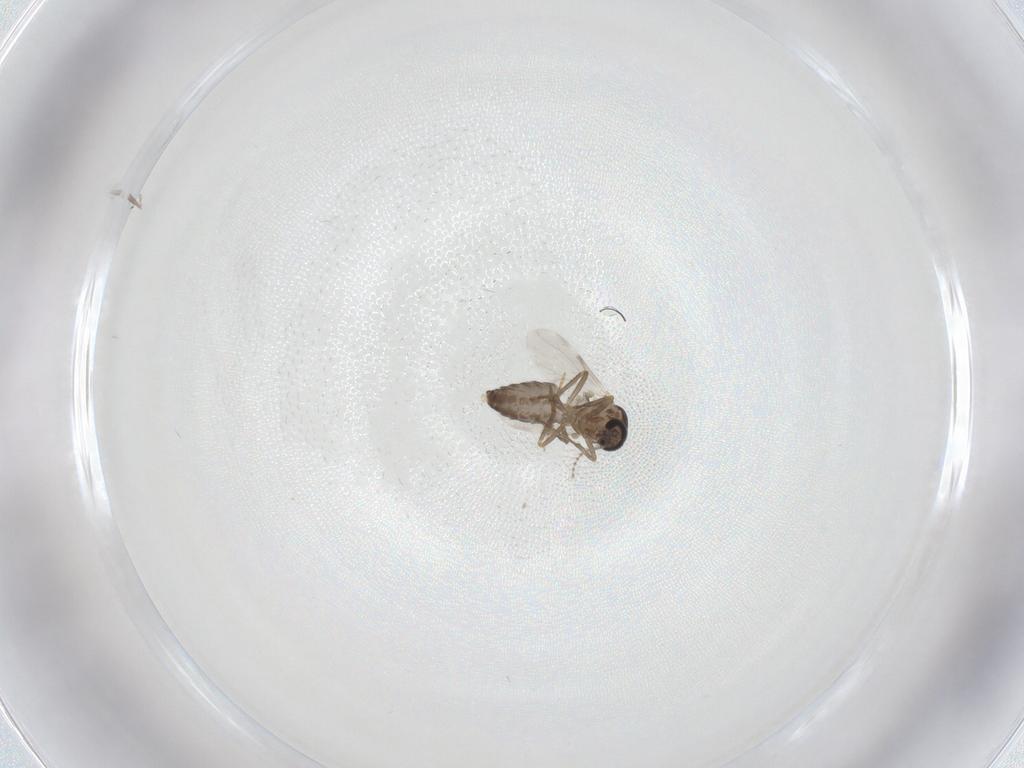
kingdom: Animalia
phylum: Arthropoda
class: Insecta
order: Diptera
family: Ceratopogonidae
